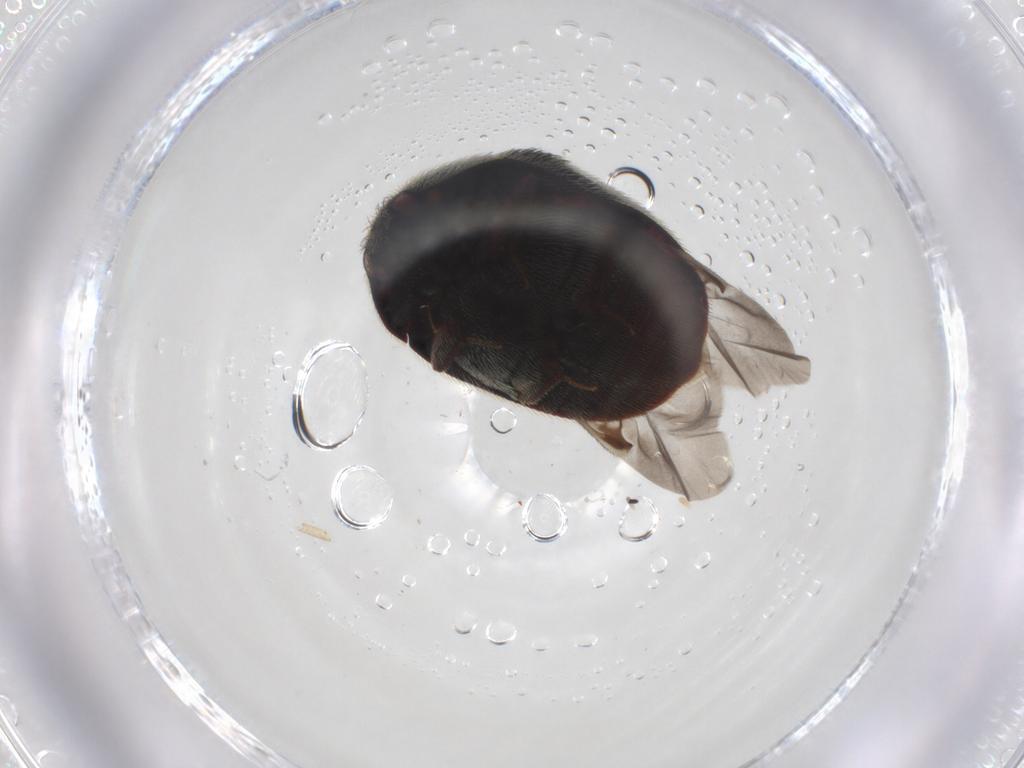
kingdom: Animalia
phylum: Arthropoda
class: Insecta
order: Coleoptera
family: Dermestidae
